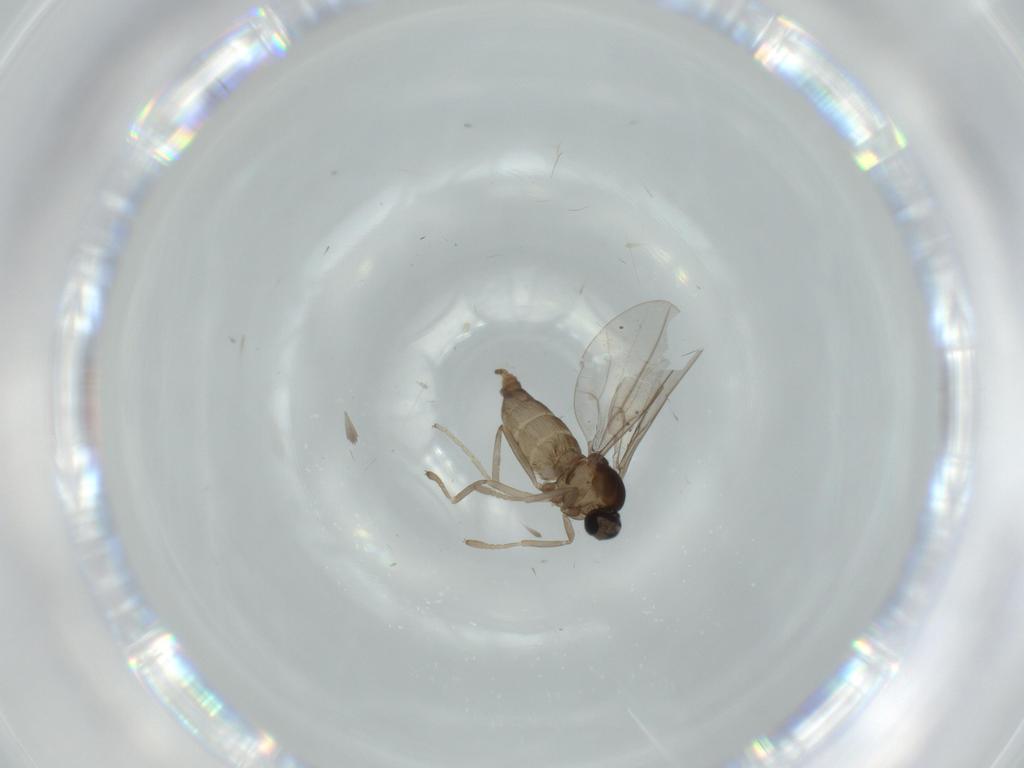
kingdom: Animalia
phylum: Arthropoda
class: Insecta
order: Diptera
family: Cecidomyiidae
